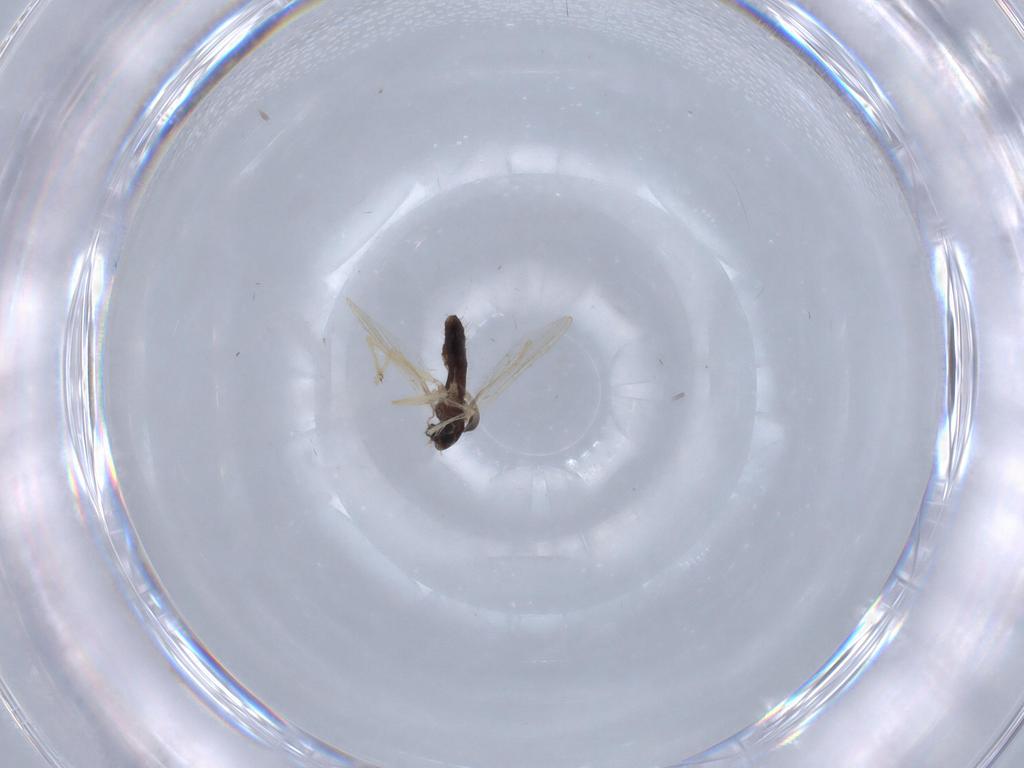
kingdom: Animalia
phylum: Arthropoda
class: Insecta
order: Diptera
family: Chironomidae
